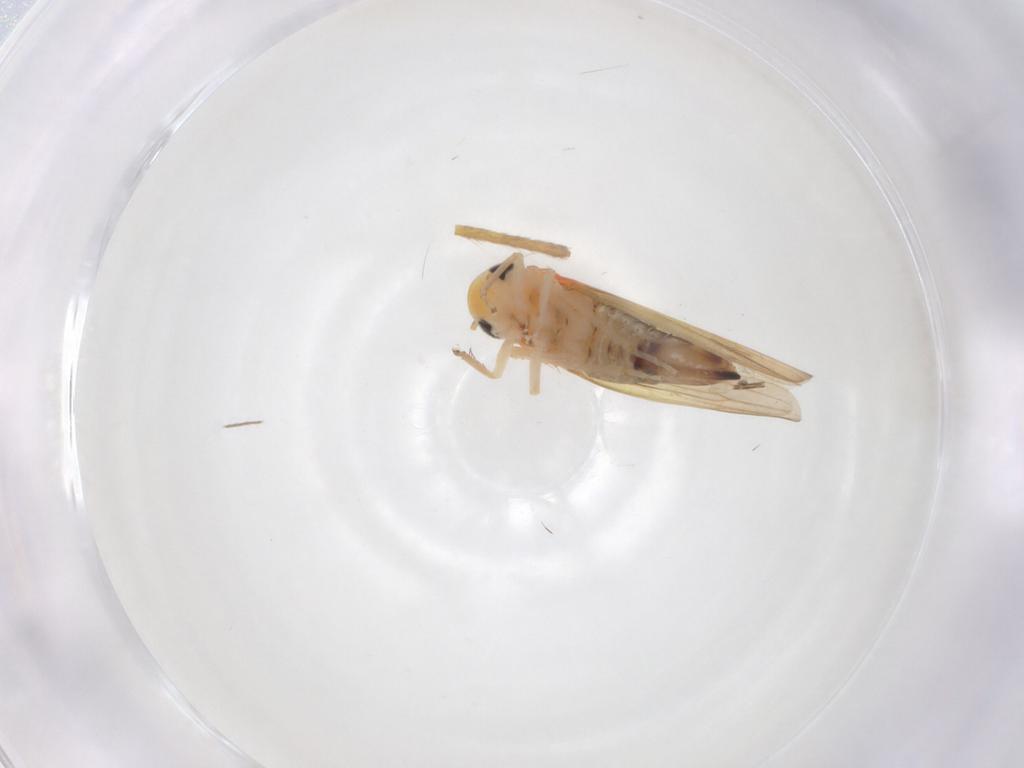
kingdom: Animalia
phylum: Arthropoda
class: Insecta
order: Hemiptera
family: Cicadellidae
